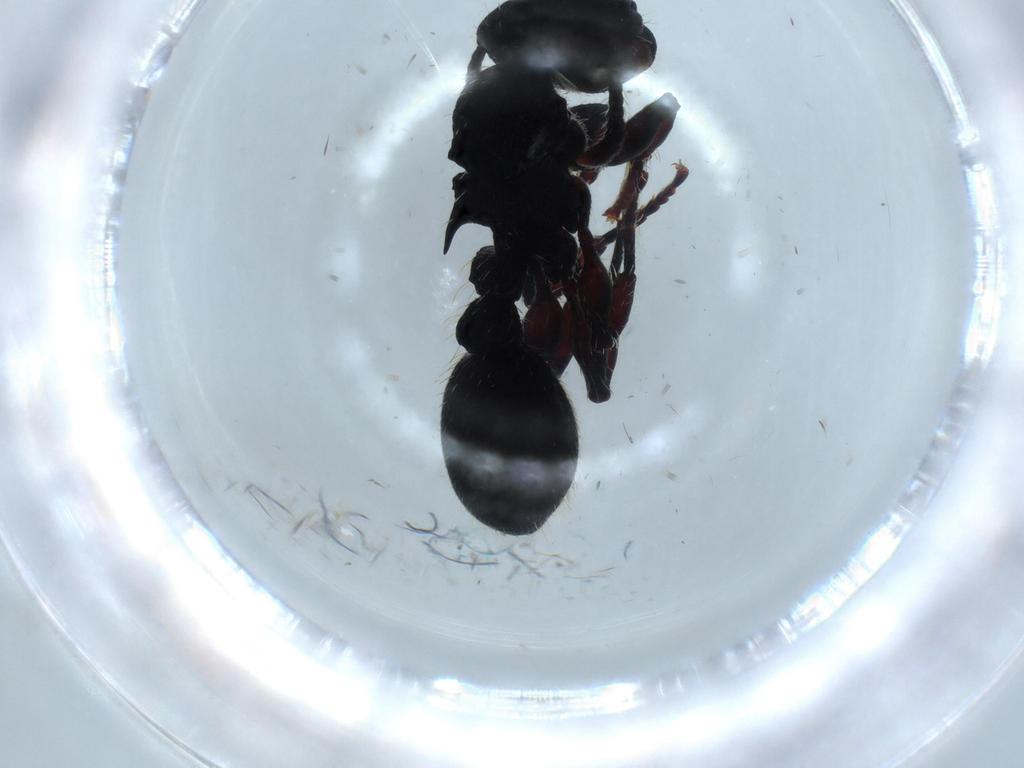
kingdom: Animalia
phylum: Arthropoda
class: Insecta
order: Hymenoptera
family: Formicidae
